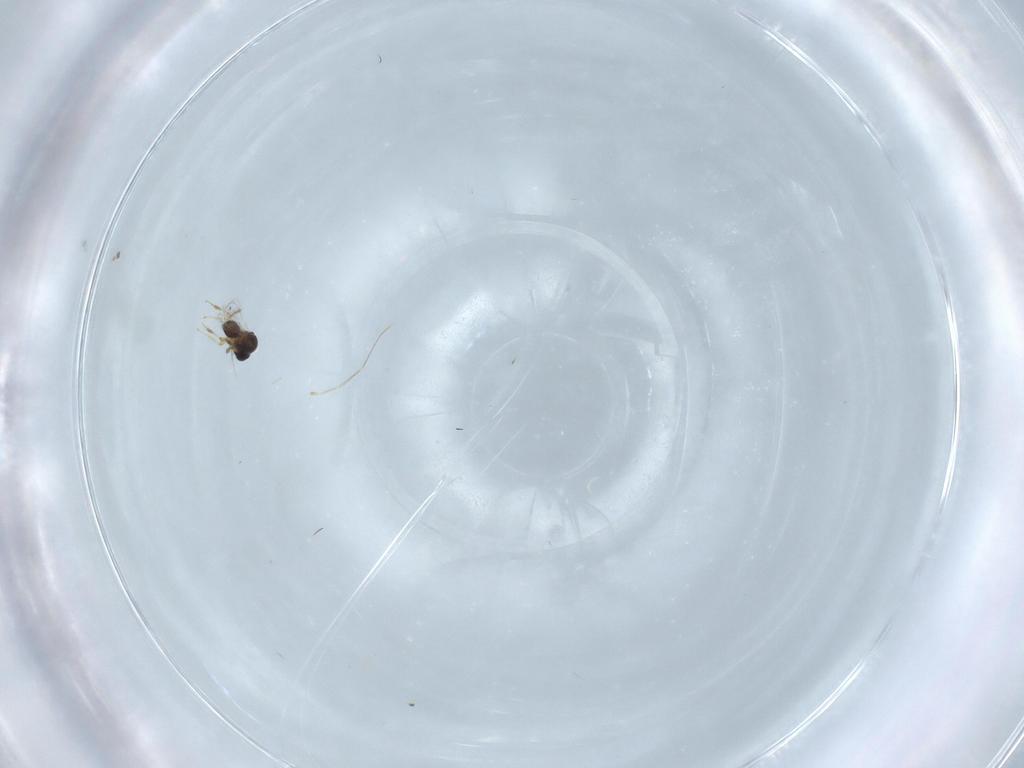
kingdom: Animalia
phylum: Arthropoda
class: Insecta
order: Hymenoptera
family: Platygastridae
